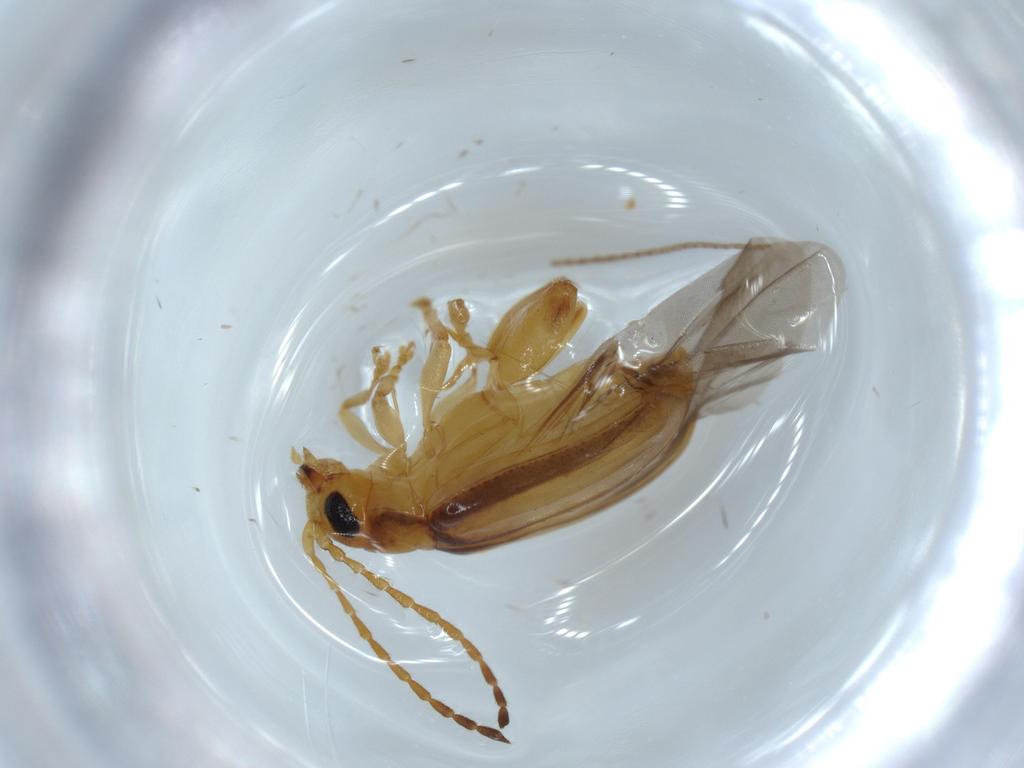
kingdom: Animalia
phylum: Arthropoda
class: Insecta
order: Coleoptera
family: Chrysomelidae
